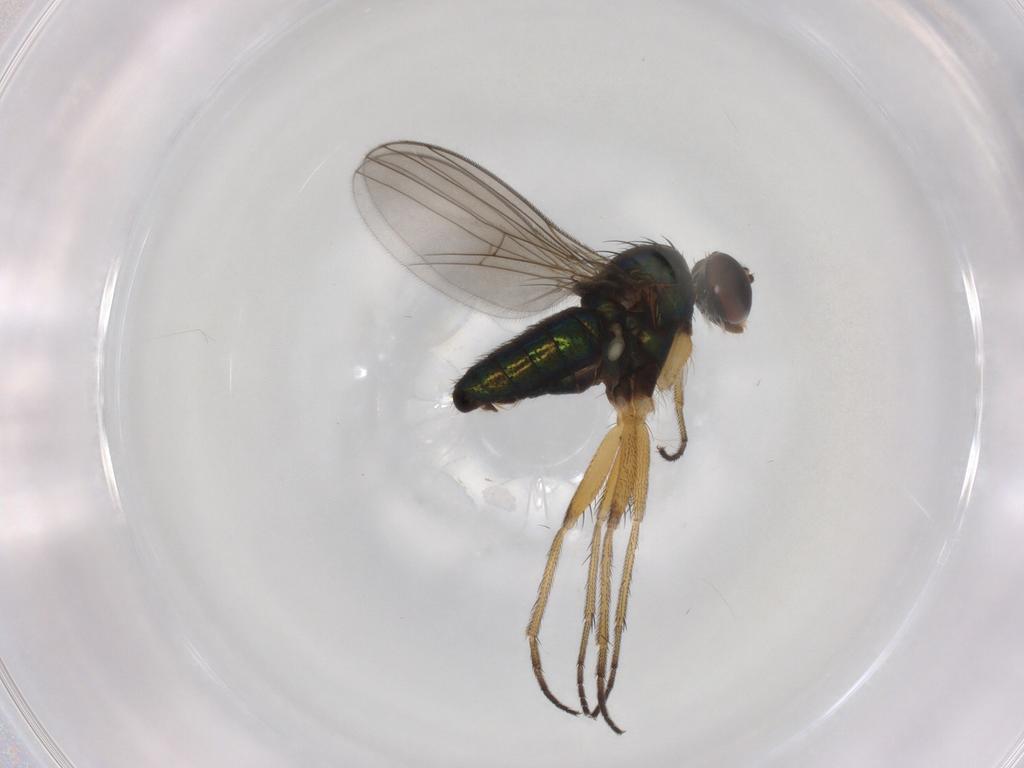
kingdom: Animalia
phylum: Arthropoda
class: Insecta
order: Diptera
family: Dolichopodidae
